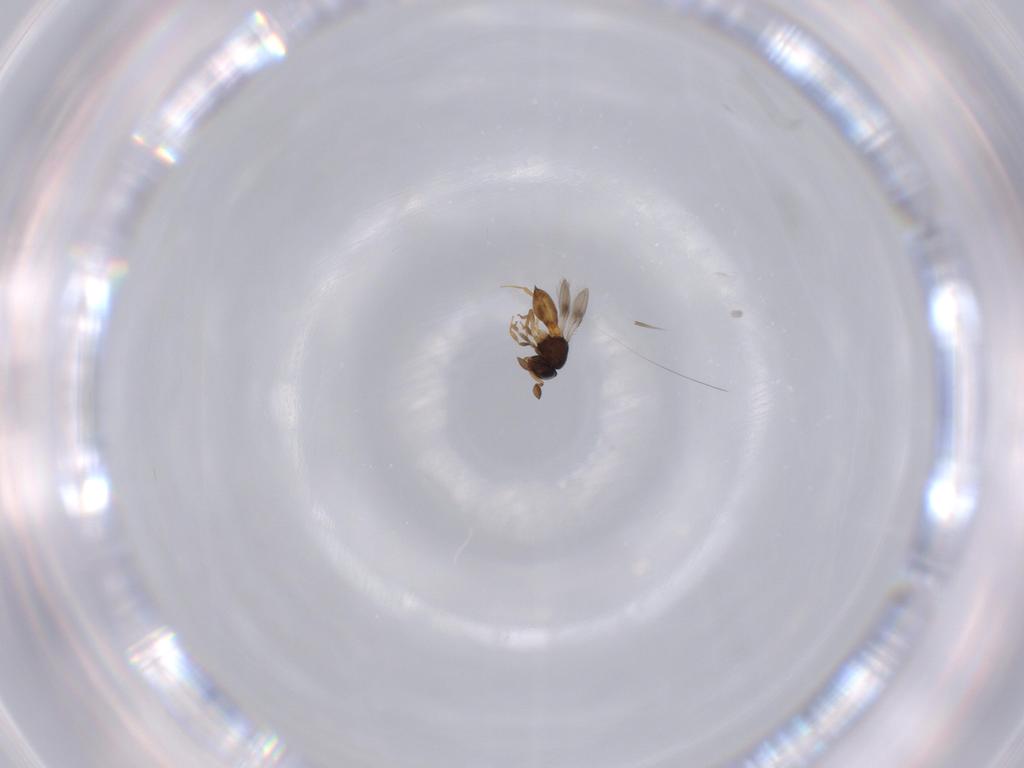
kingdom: Animalia
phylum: Arthropoda
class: Insecta
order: Hymenoptera
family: Scelionidae
